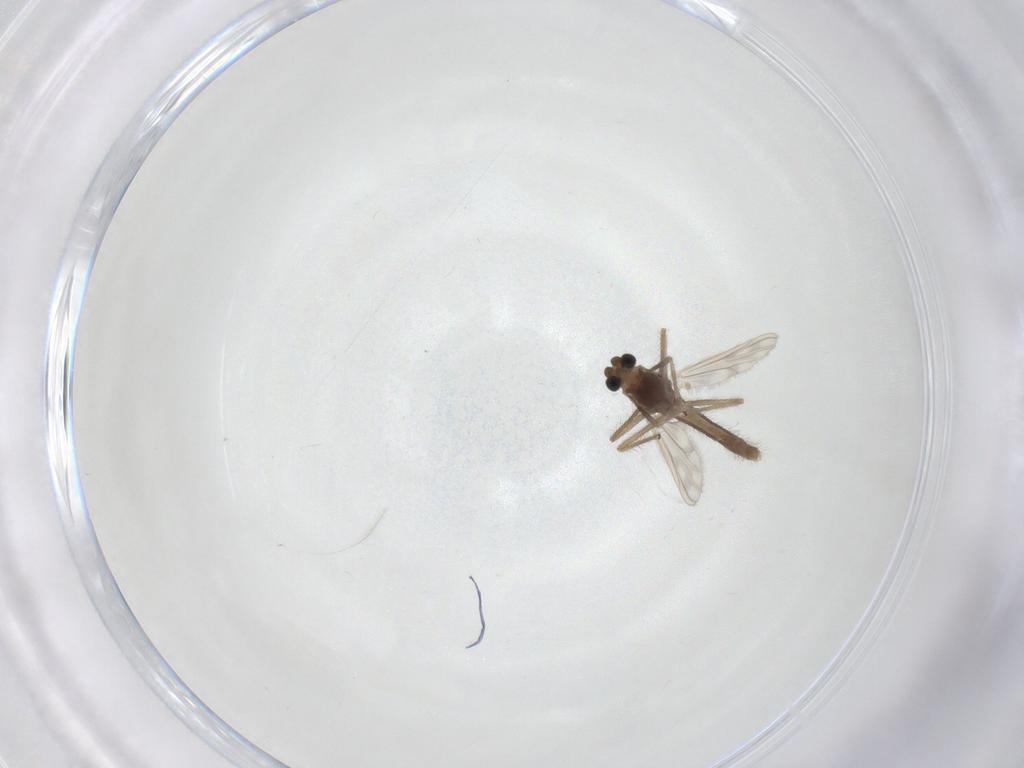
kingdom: Animalia
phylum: Arthropoda
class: Insecta
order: Diptera
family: Chironomidae
